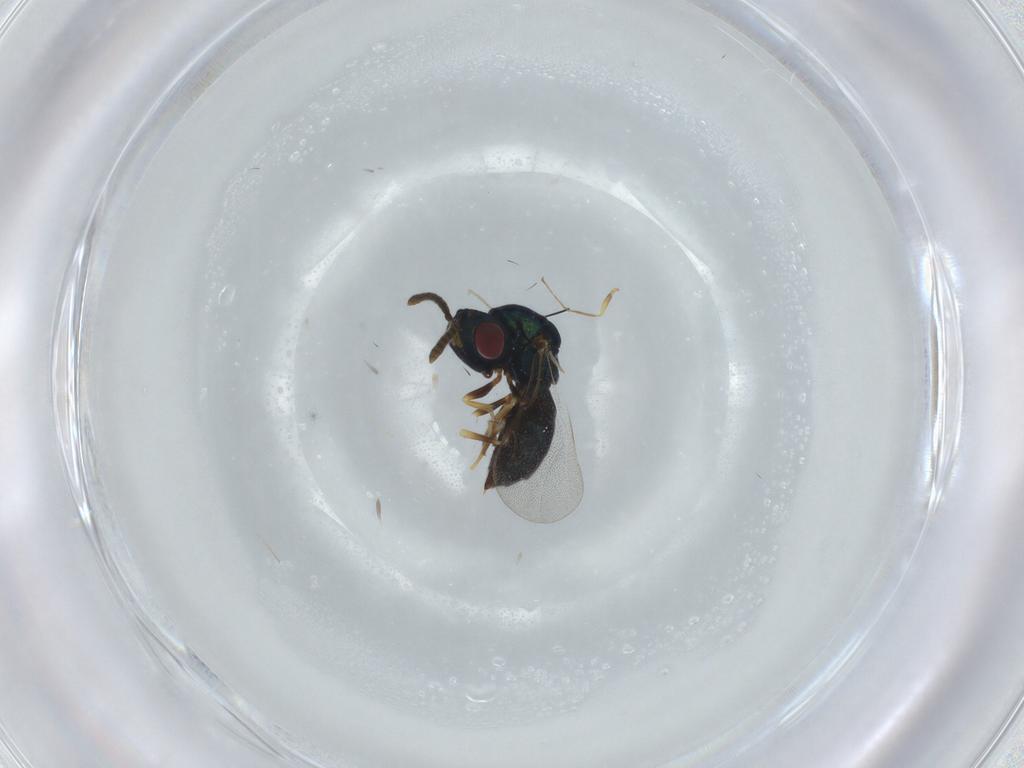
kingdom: Animalia
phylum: Arthropoda
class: Insecta
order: Hymenoptera
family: Pteromalidae
